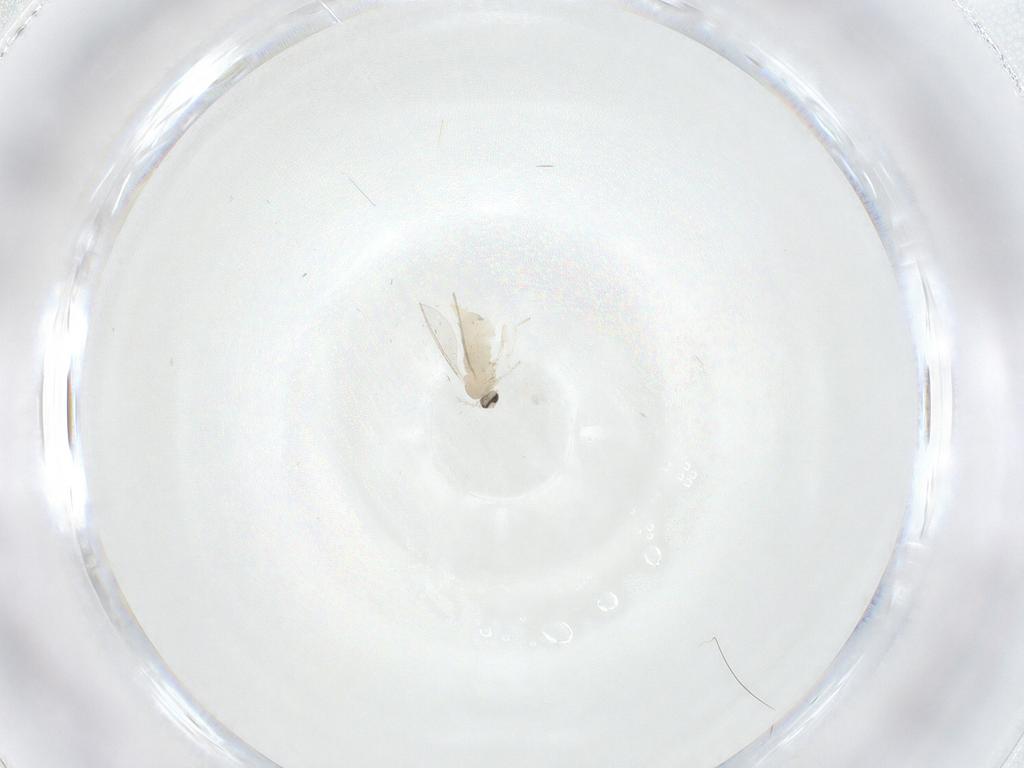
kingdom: Animalia
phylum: Arthropoda
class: Insecta
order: Diptera
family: Cecidomyiidae
